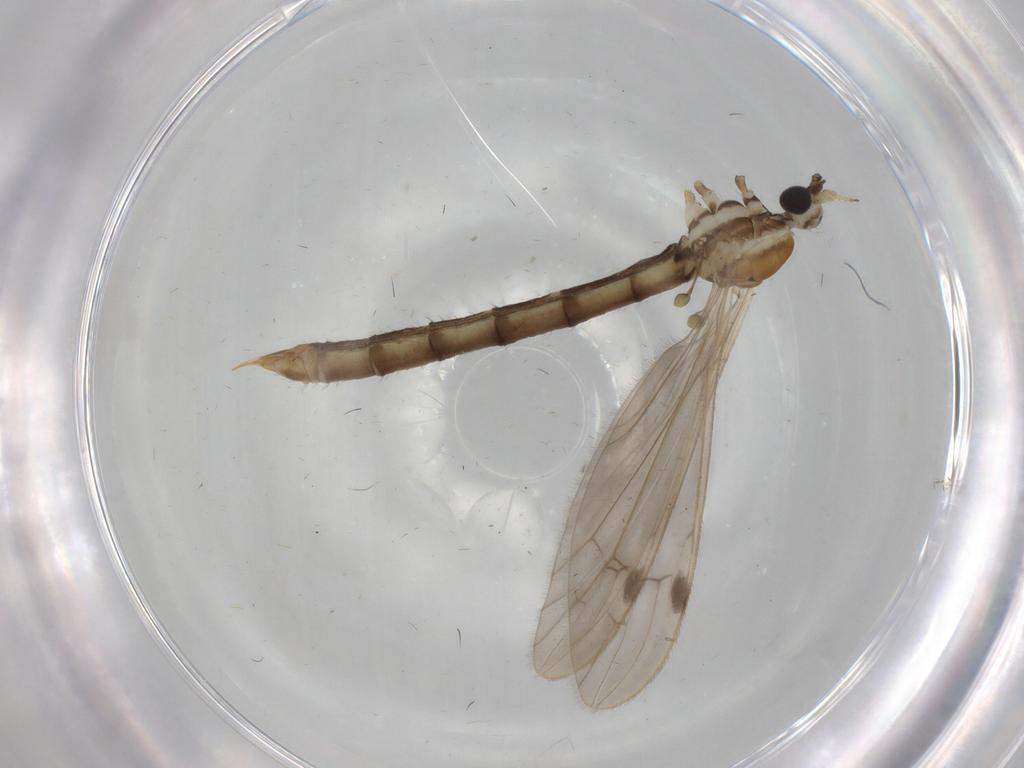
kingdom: Animalia
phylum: Arthropoda
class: Insecta
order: Diptera
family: Limoniidae
